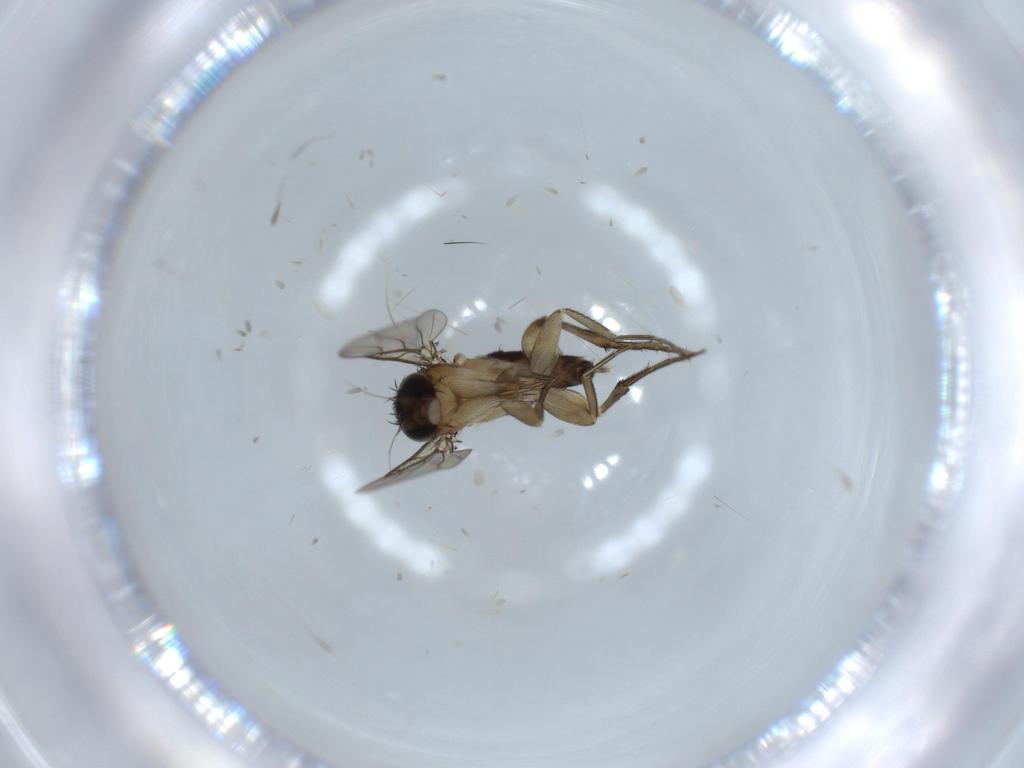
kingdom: Animalia
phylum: Arthropoda
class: Insecta
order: Diptera
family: Phoridae
